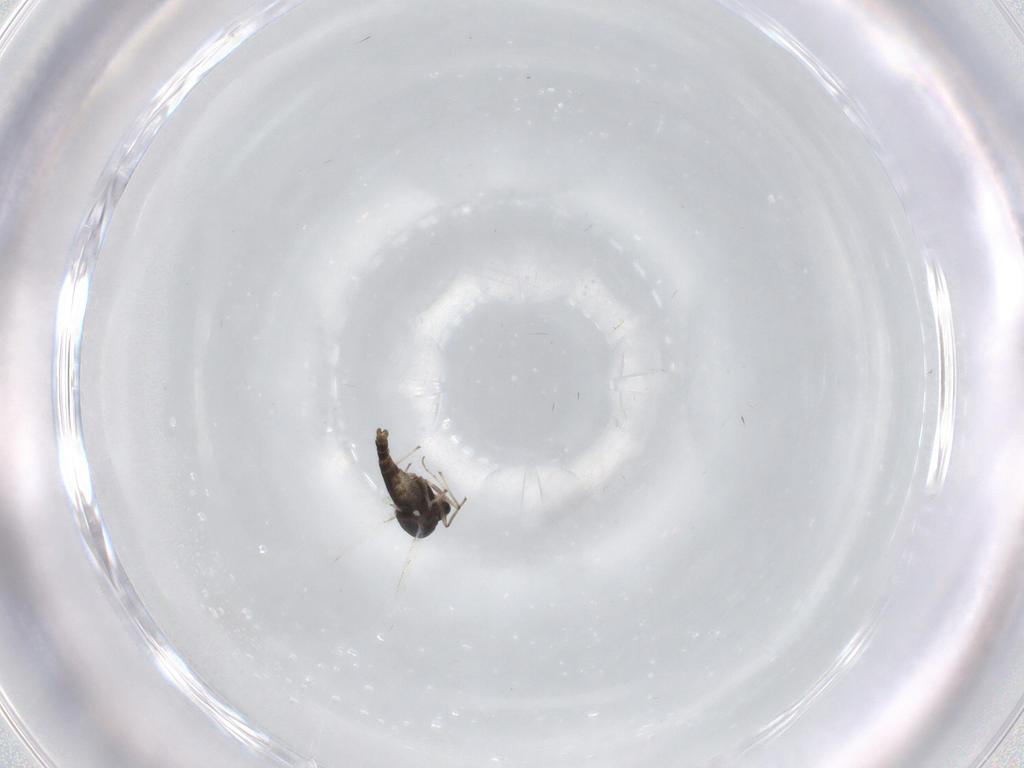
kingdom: Animalia
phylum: Arthropoda
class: Insecta
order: Diptera
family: Chironomidae
